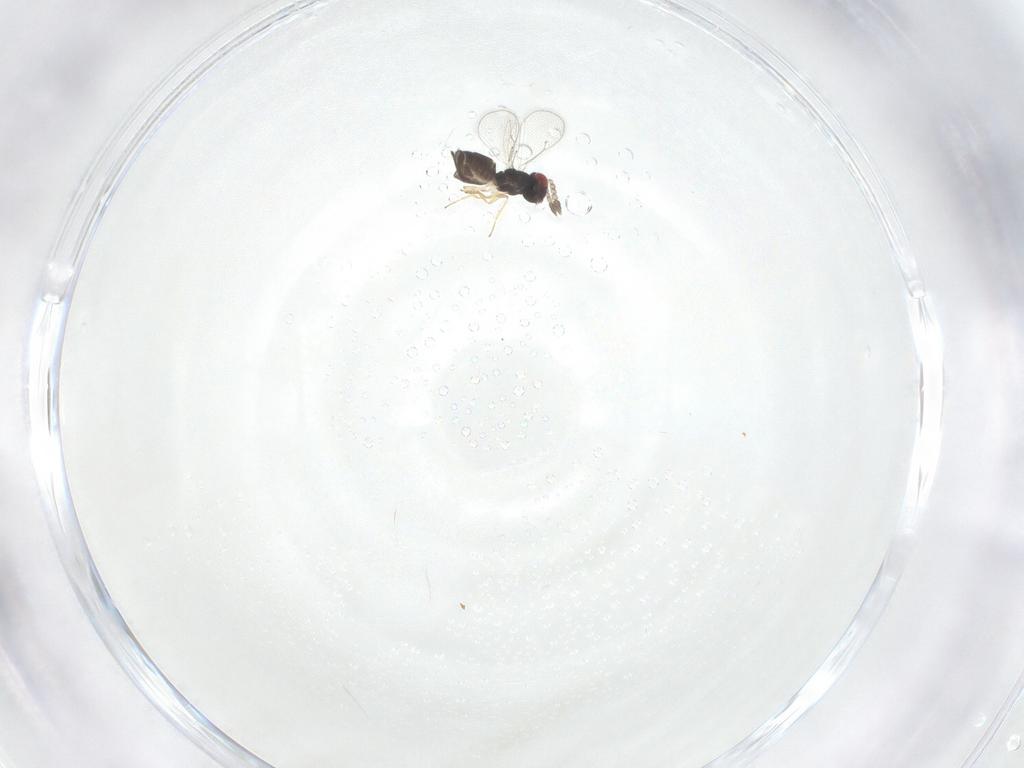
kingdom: Animalia
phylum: Arthropoda
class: Insecta
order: Hymenoptera
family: Eulophidae
